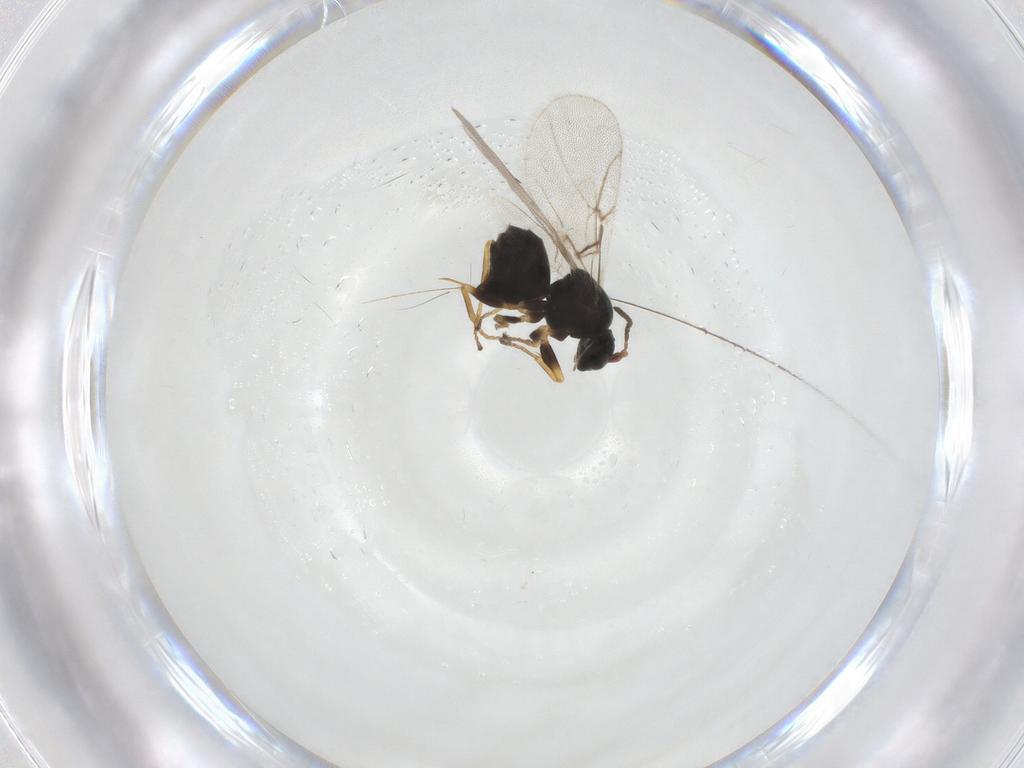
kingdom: Animalia
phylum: Arthropoda
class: Insecta
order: Hymenoptera
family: Cynipidae
